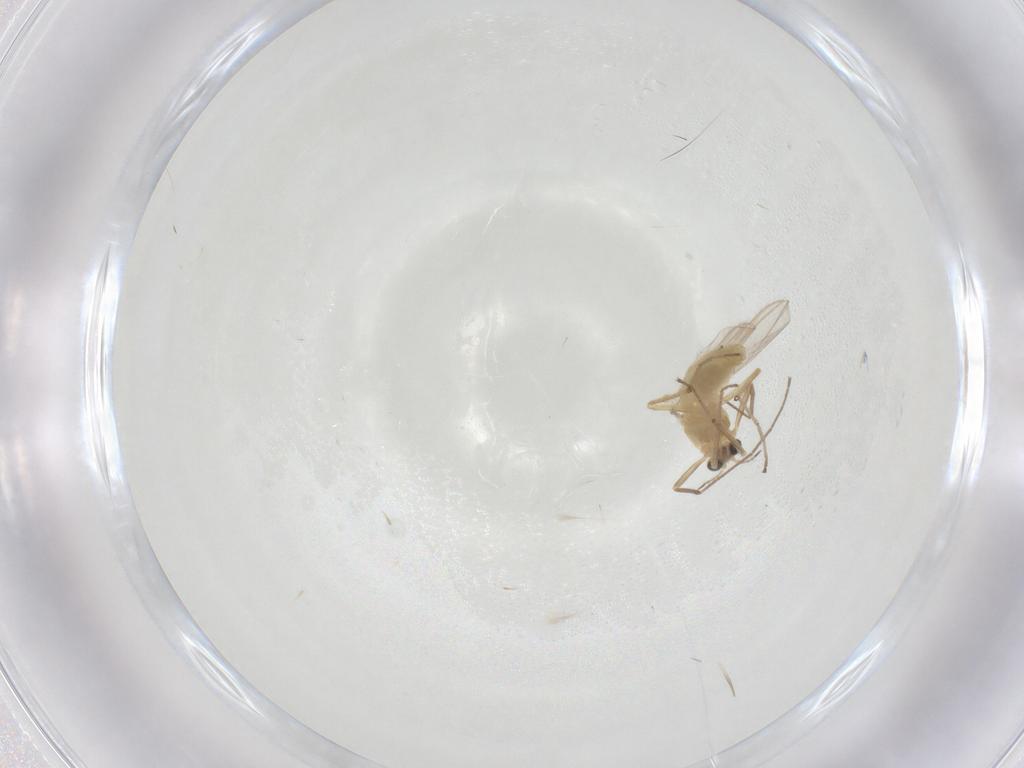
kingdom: Animalia
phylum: Arthropoda
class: Insecta
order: Diptera
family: Chironomidae
